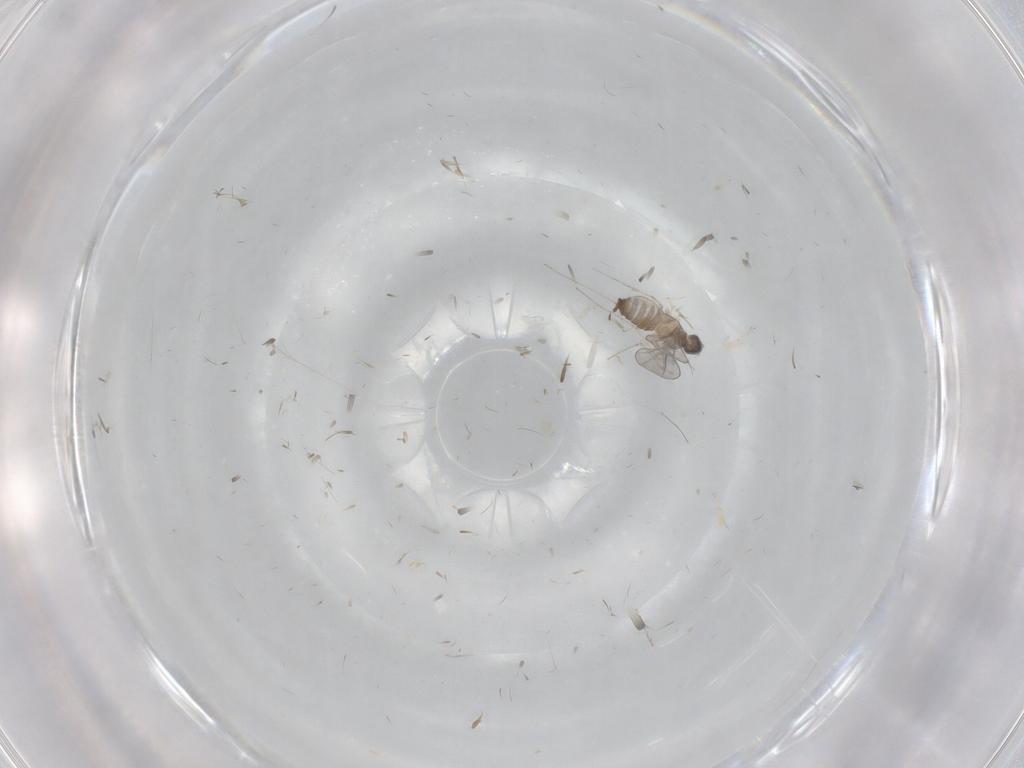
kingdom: Animalia
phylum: Arthropoda
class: Insecta
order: Diptera
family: Cecidomyiidae
